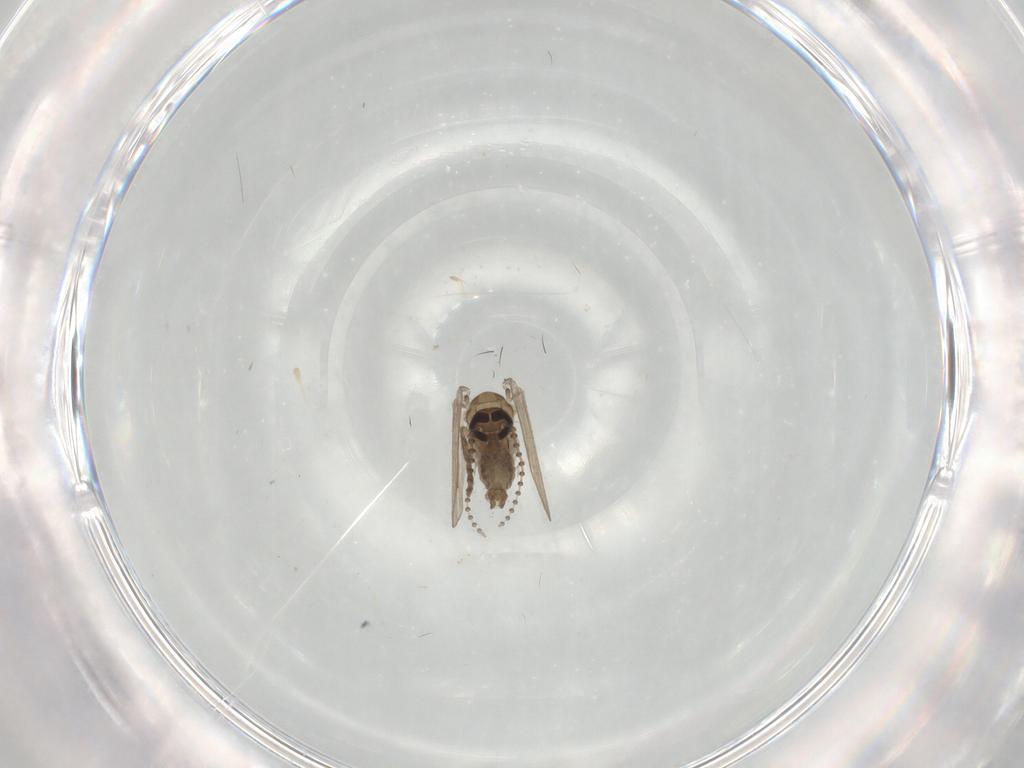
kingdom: Animalia
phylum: Arthropoda
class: Insecta
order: Diptera
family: Psychodidae
